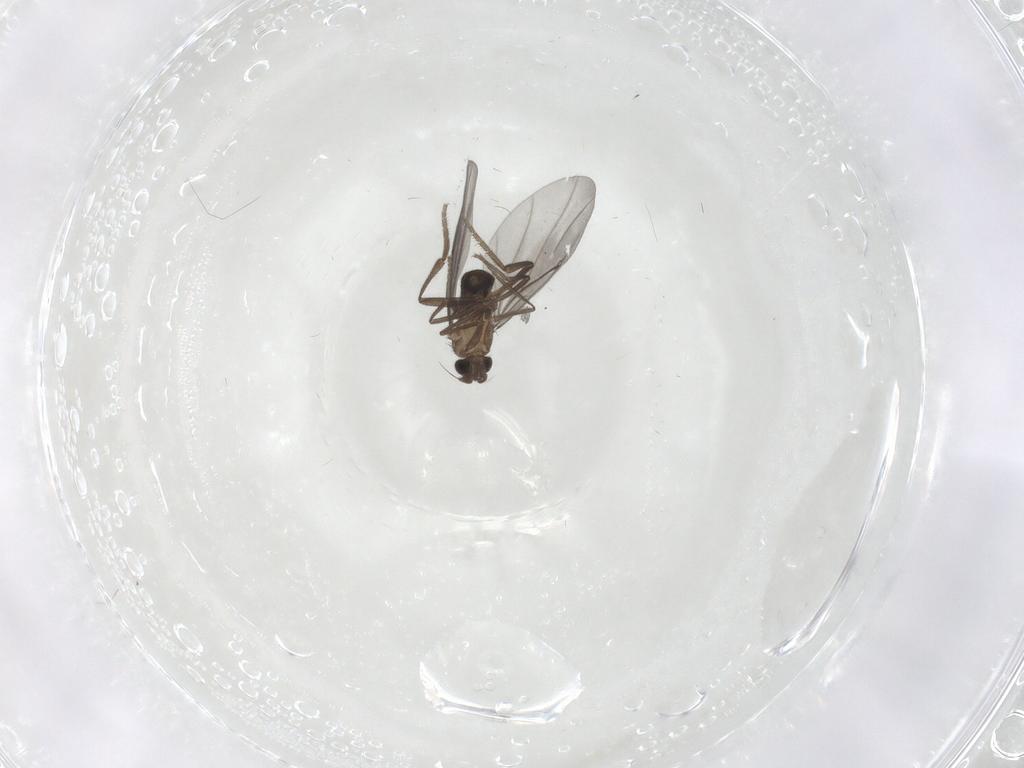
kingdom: Animalia
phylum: Arthropoda
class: Insecta
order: Diptera
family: Phoridae
